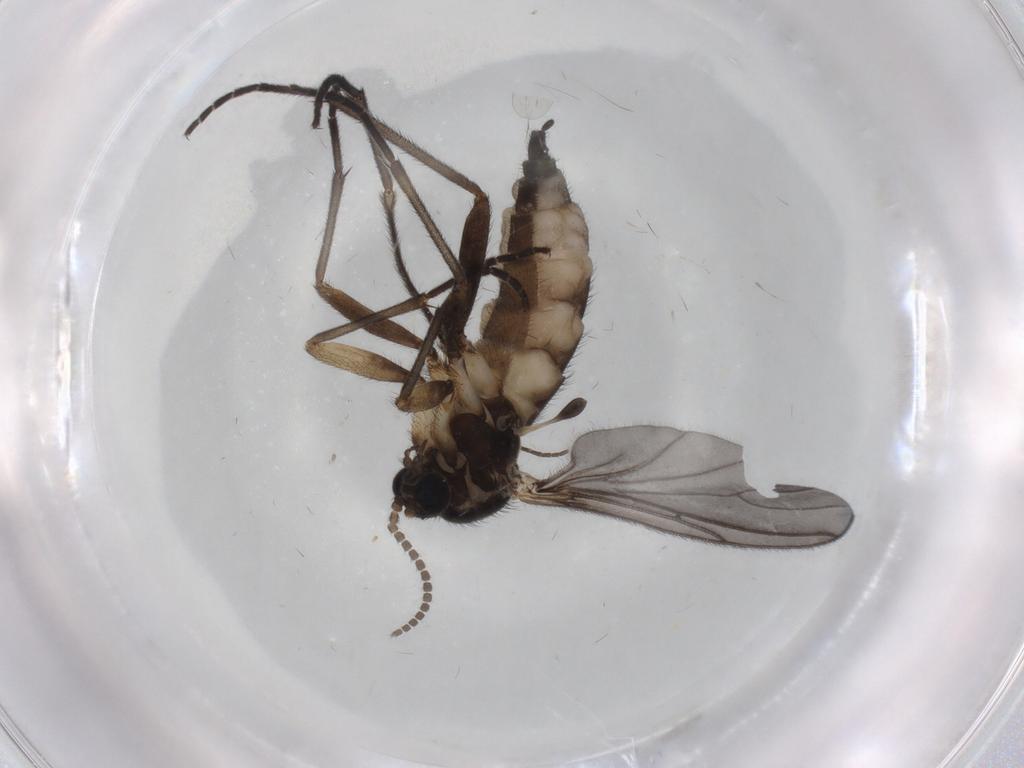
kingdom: Animalia
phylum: Arthropoda
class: Insecta
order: Diptera
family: Sciaridae
